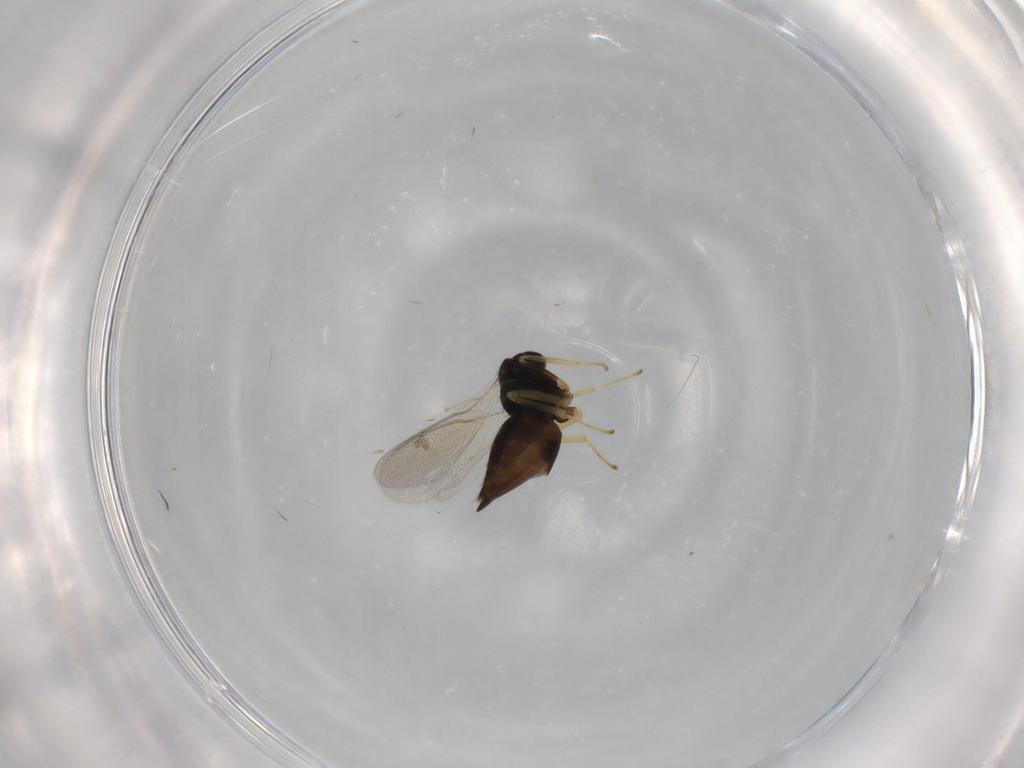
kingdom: Animalia
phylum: Arthropoda
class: Insecta
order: Hymenoptera
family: Pteromalidae
